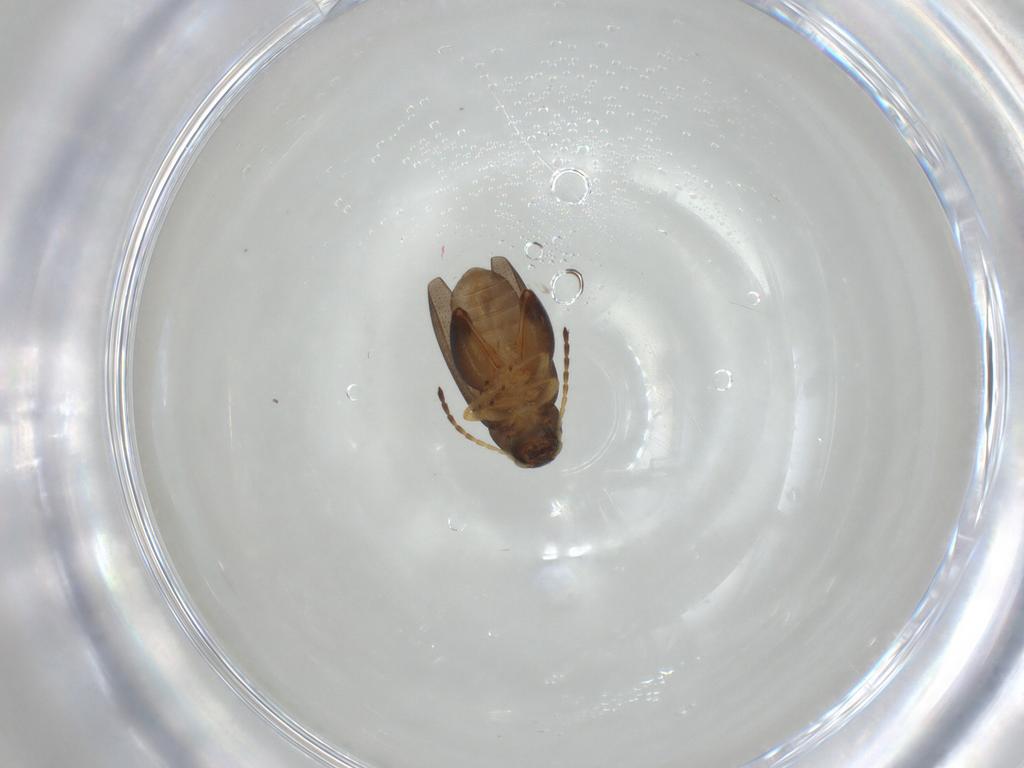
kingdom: Animalia
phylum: Arthropoda
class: Insecta
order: Coleoptera
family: Chrysomelidae
